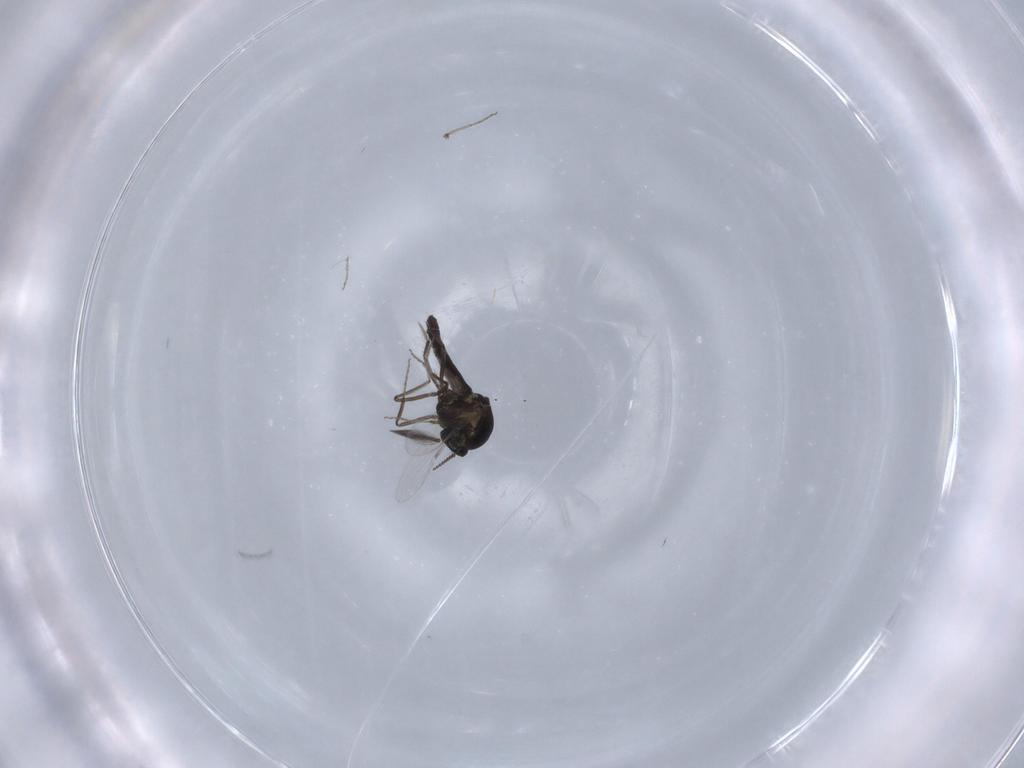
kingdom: Animalia
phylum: Arthropoda
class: Insecta
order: Diptera
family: Ceratopogonidae
